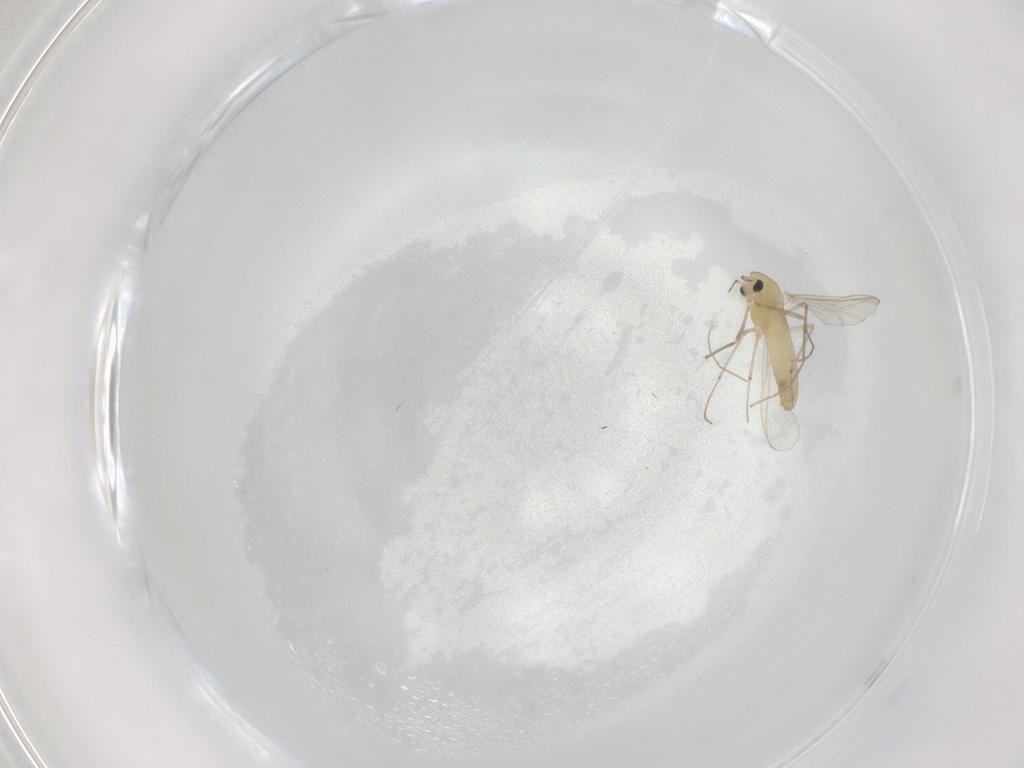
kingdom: Animalia
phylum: Arthropoda
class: Insecta
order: Diptera
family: Chironomidae
